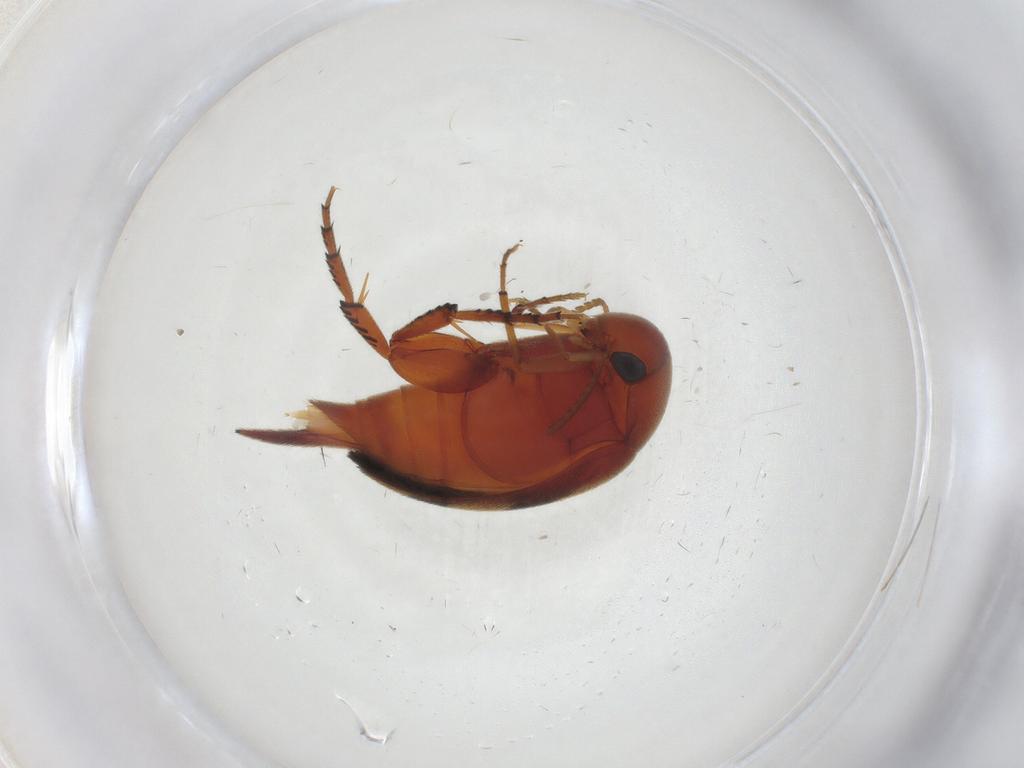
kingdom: Animalia
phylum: Arthropoda
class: Insecta
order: Coleoptera
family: Mordellidae
